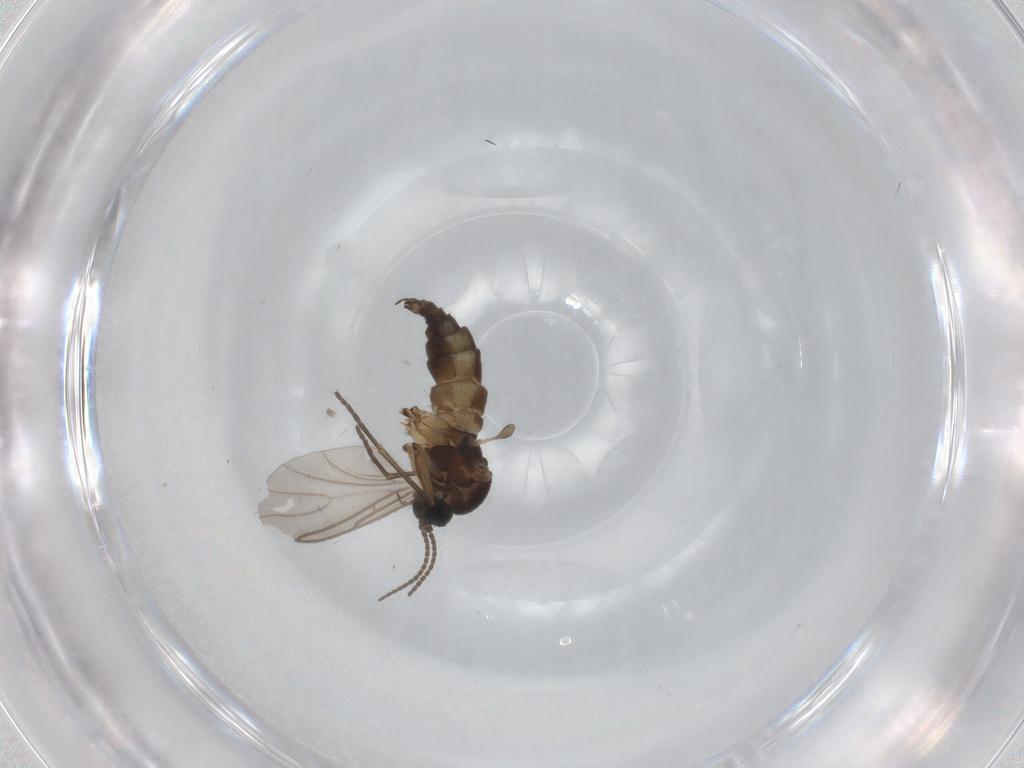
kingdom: Animalia
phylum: Arthropoda
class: Insecta
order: Diptera
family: Sciaridae
